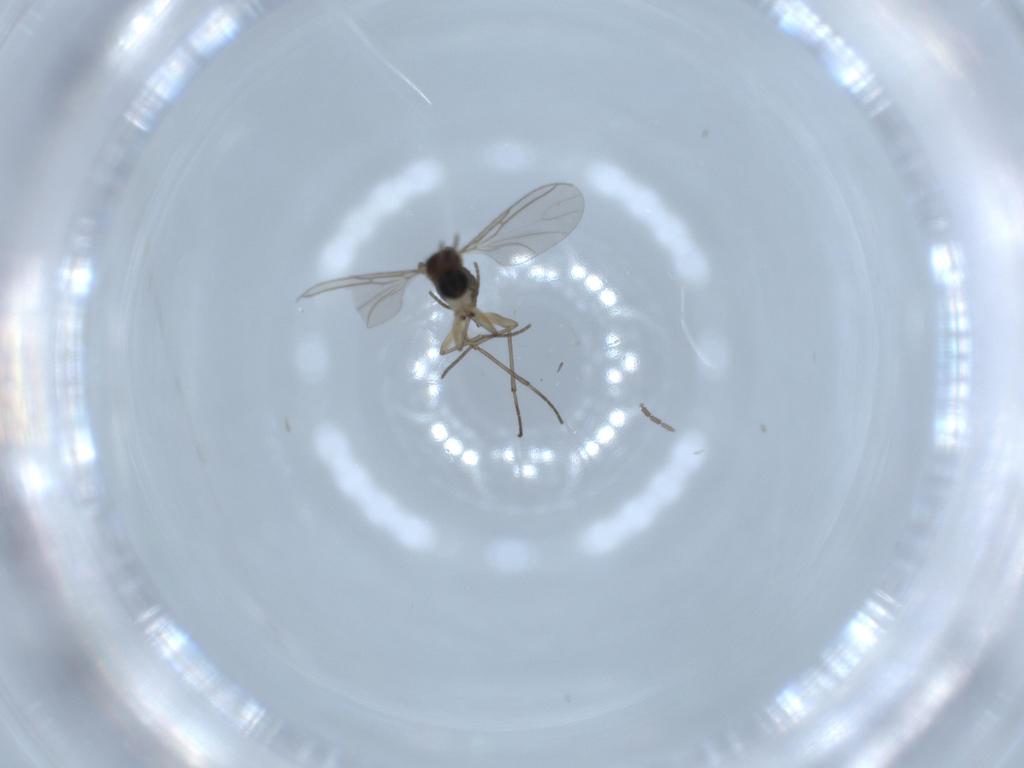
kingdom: Animalia
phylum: Arthropoda
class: Insecta
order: Diptera
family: Sciaridae
